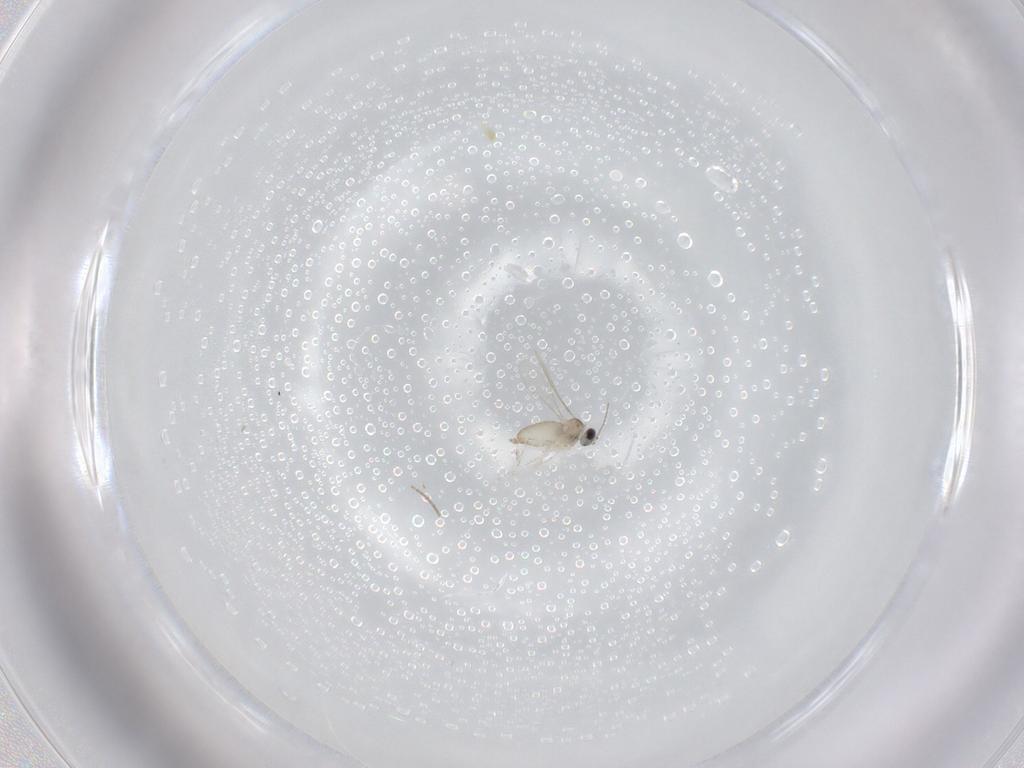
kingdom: Animalia
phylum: Arthropoda
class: Insecta
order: Diptera
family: Cecidomyiidae
